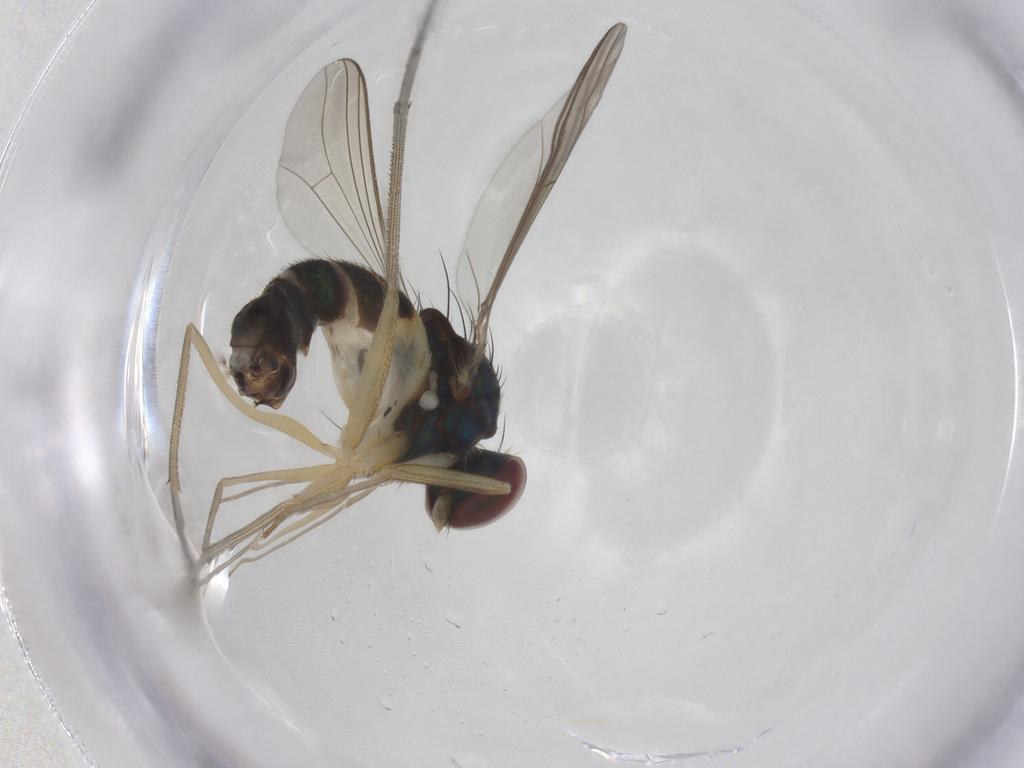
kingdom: Animalia
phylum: Arthropoda
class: Insecta
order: Diptera
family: Dolichopodidae
